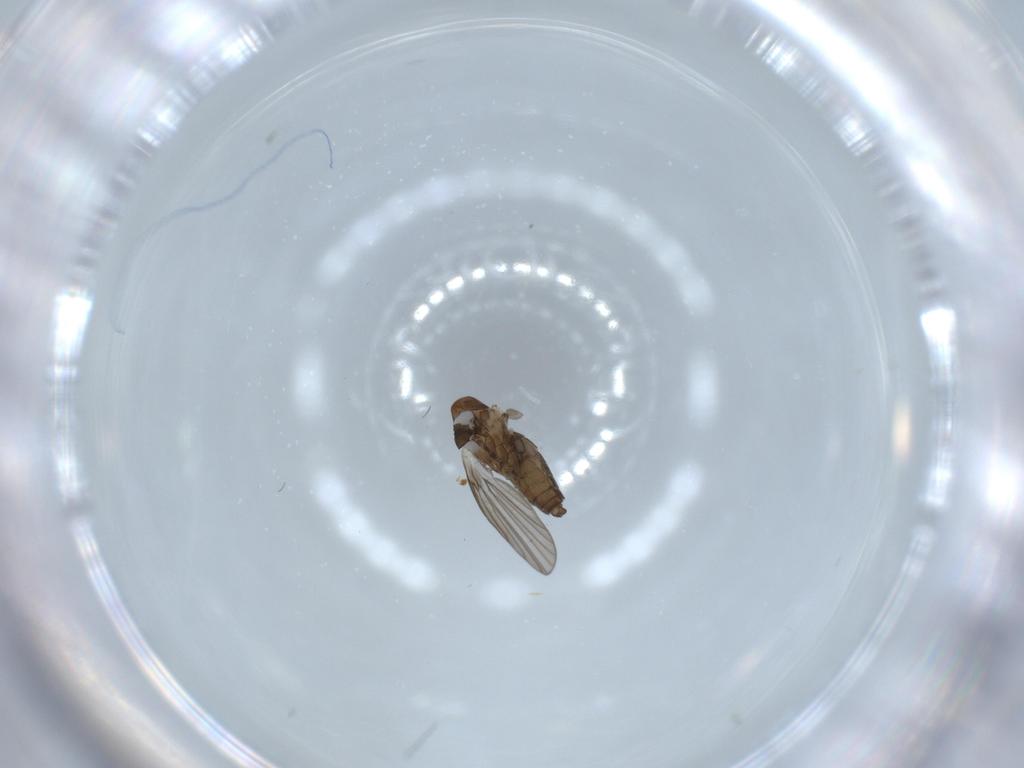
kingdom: Animalia
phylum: Arthropoda
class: Insecta
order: Diptera
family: Psychodidae
